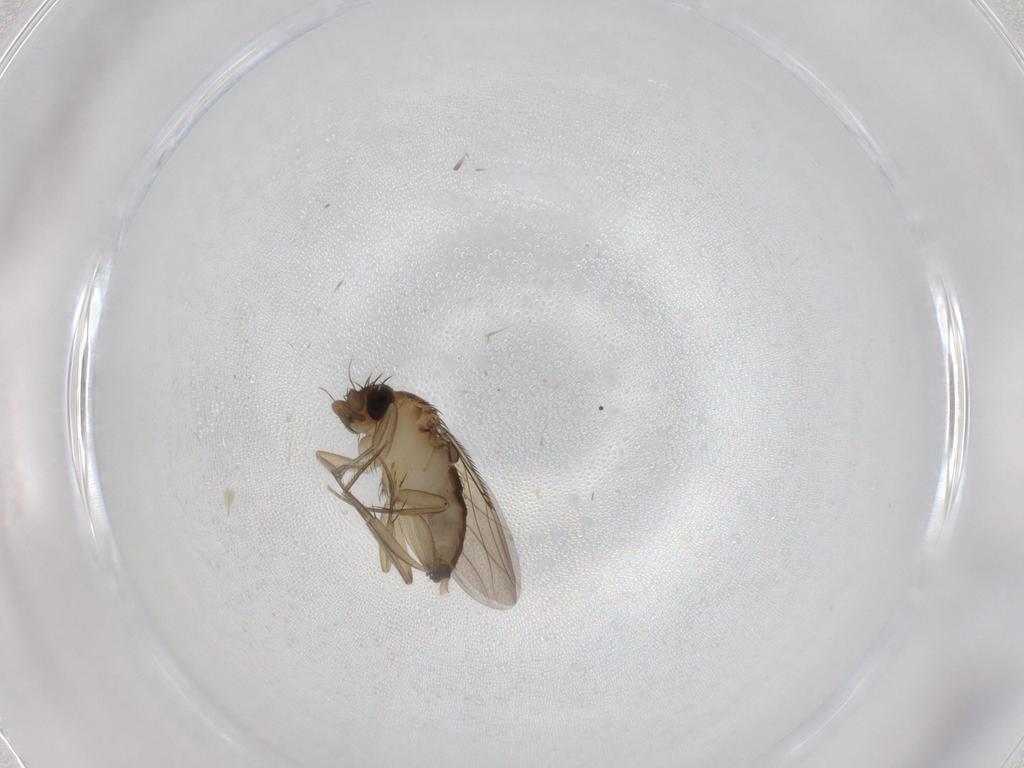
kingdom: Animalia
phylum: Arthropoda
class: Insecta
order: Diptera
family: Phoridae
